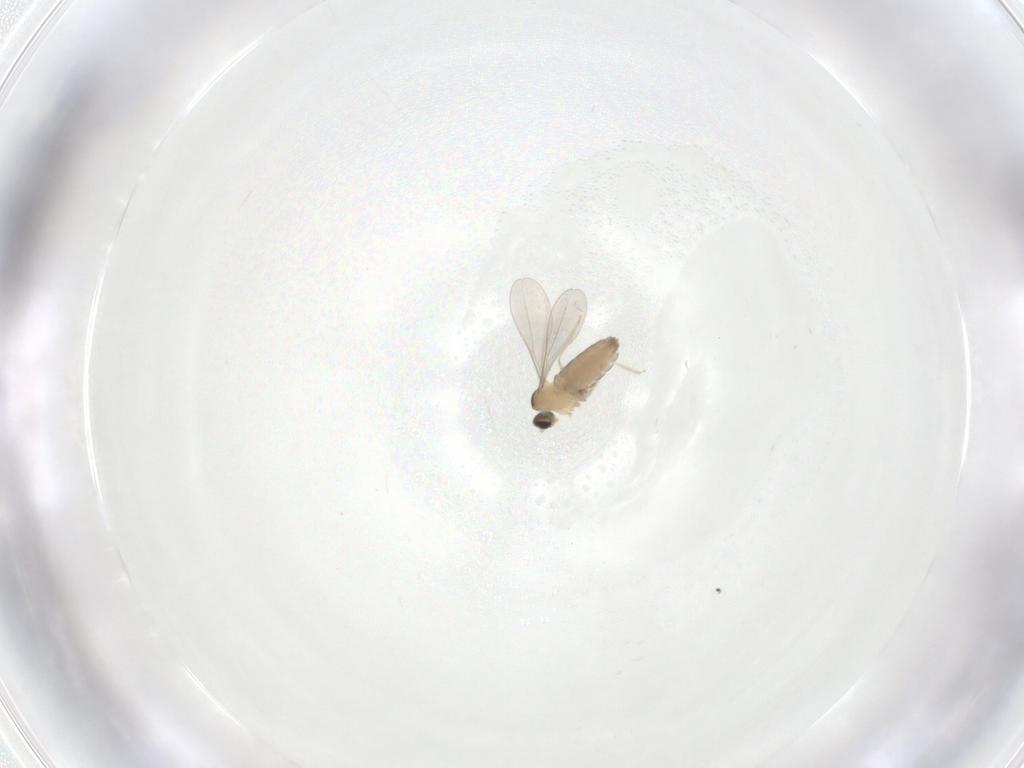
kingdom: Animalia
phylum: Arthropoda
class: Insecta
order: Diptera
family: Cecidomyiidae
